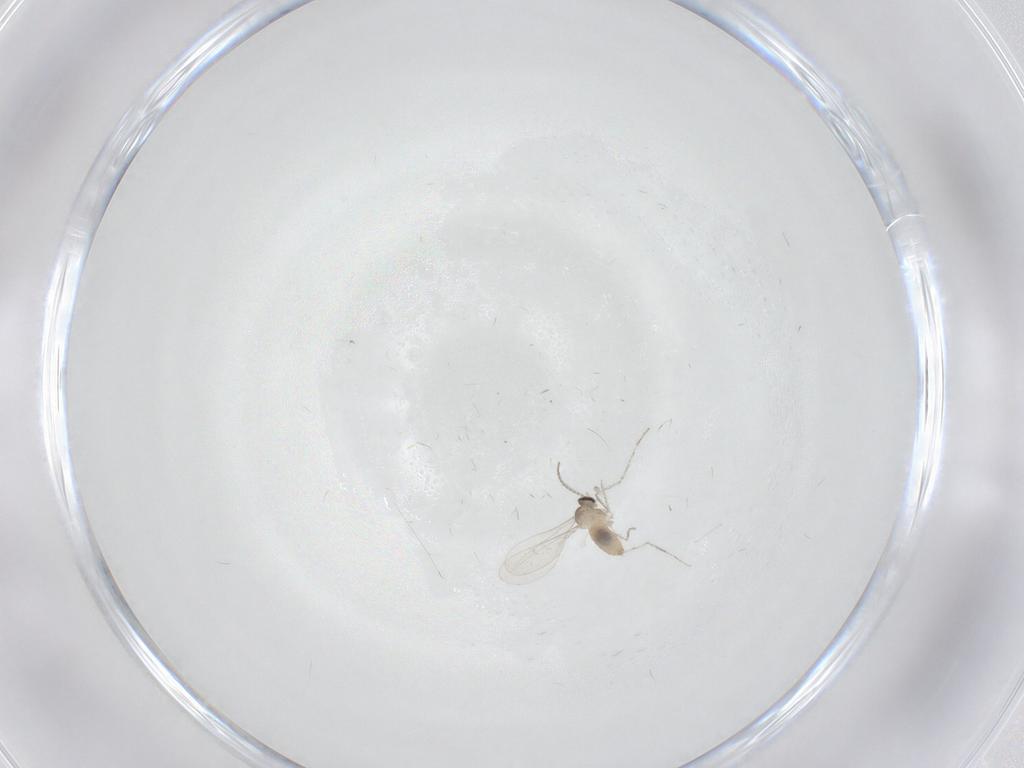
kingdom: Animalia
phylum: Arthropoda
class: Insecta
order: Diptera
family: Cecidomyiidae
